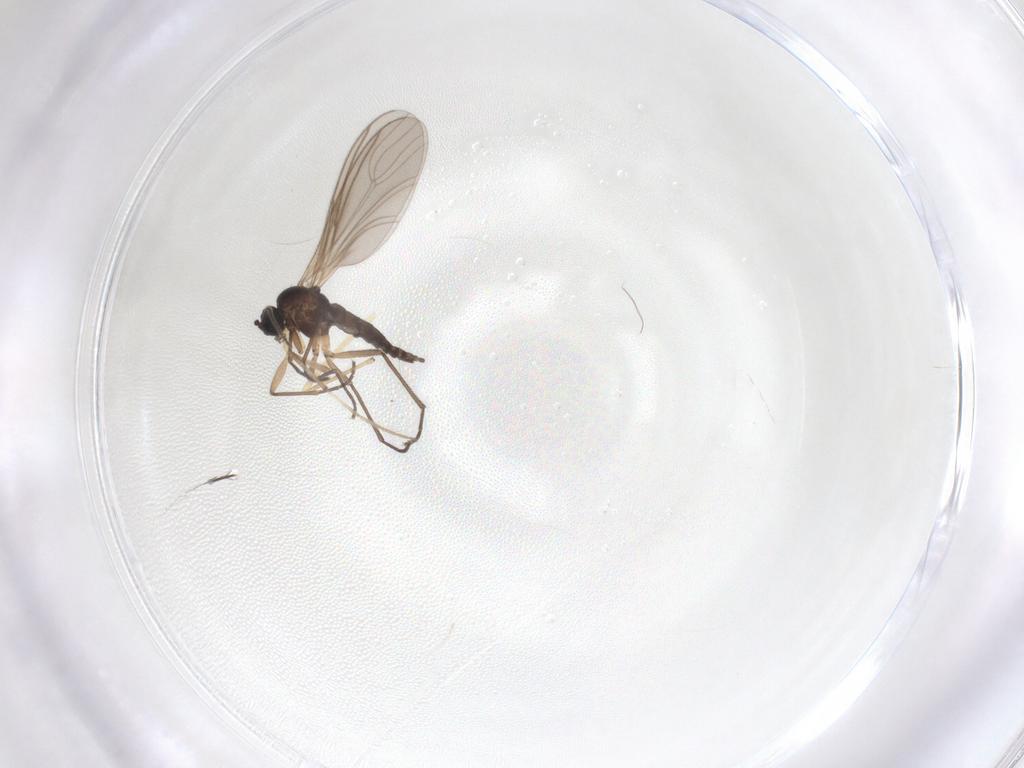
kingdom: Animalia
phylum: Arthropoda
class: Insecta
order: Diptera
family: Sciaridae
